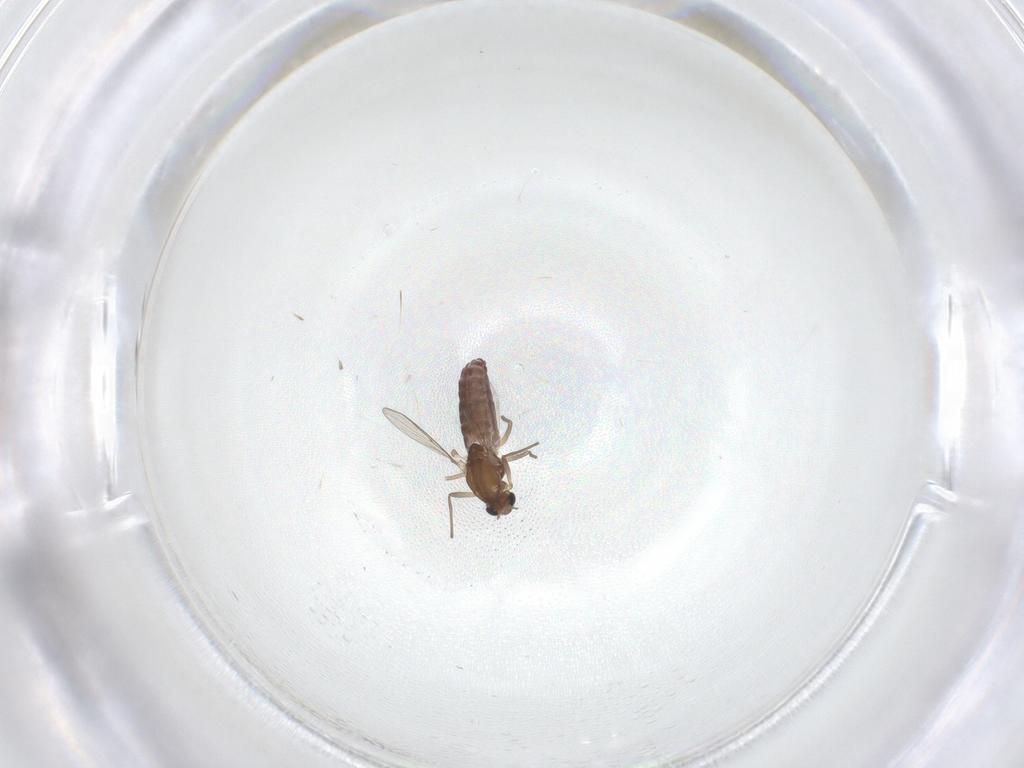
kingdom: Animalia
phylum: Arthropoda
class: Insecta
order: Diptera
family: Chironomidae
